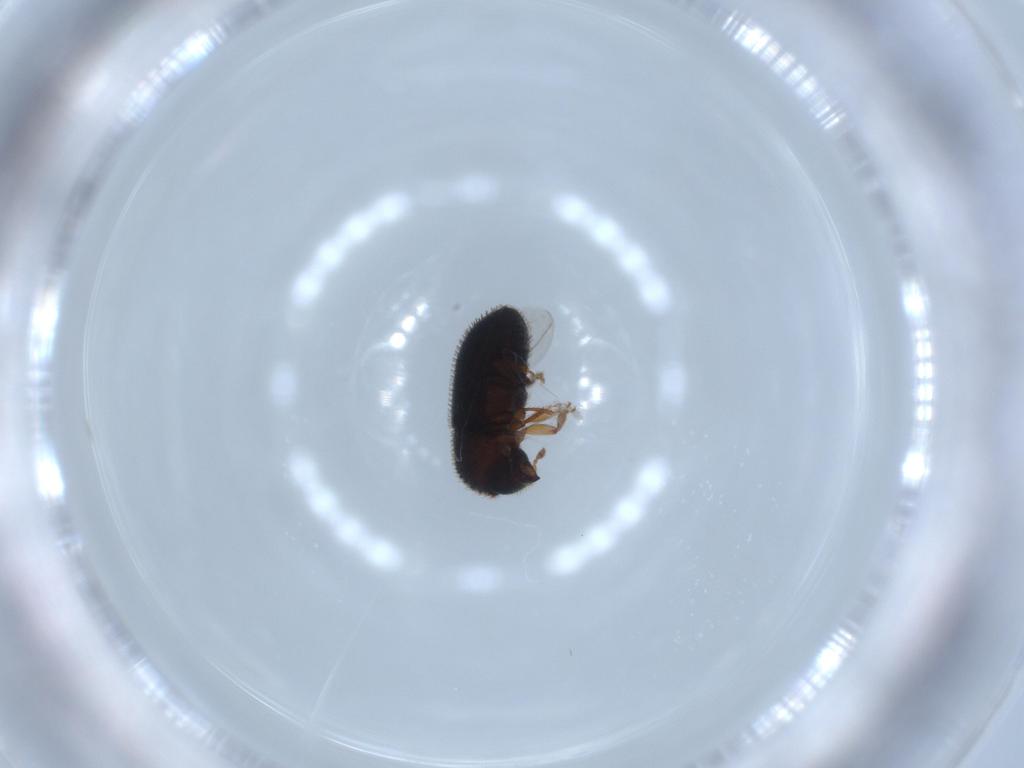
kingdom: Animalia
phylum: Arthropoda
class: Insecta
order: Coleoptera
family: Curculionidae
